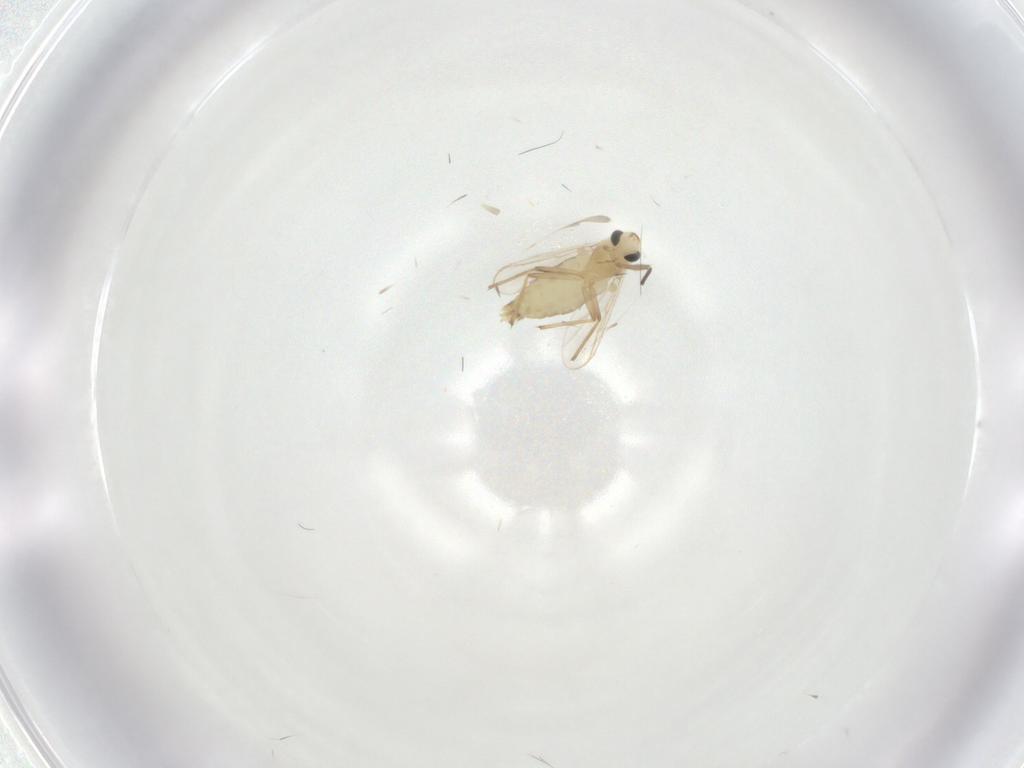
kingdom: Animalia
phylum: Arthropoda
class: Insecta
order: Diptera
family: Chironomidae
